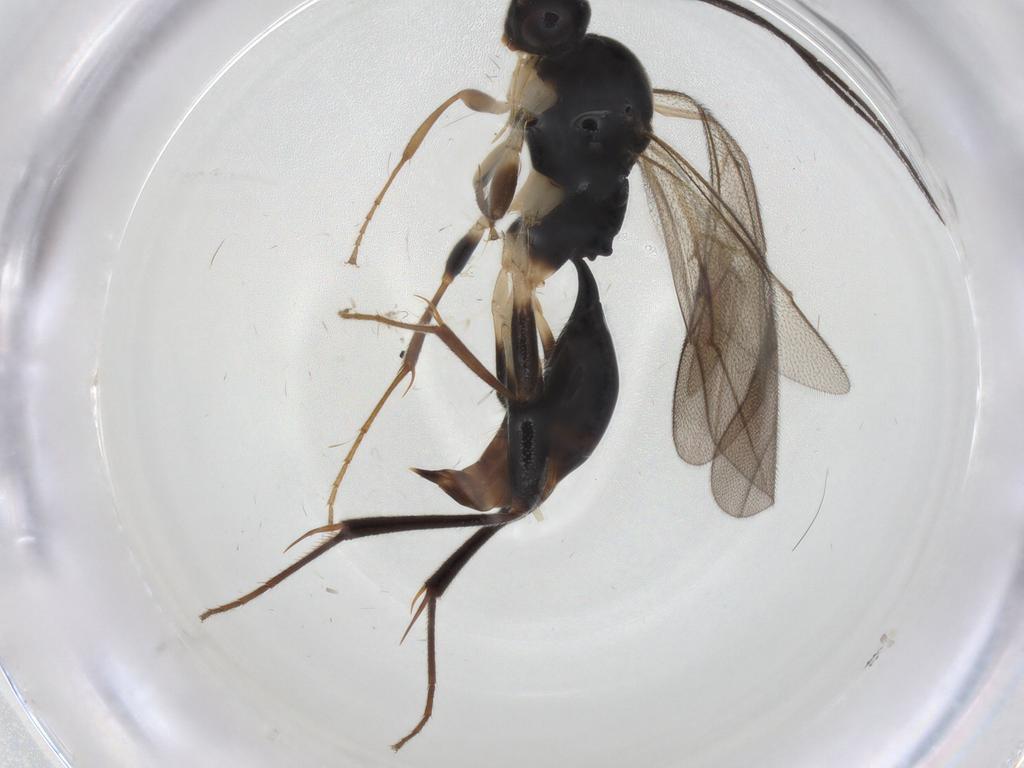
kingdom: Animalia
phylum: Arthropoda
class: Insecta
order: Hymenoptera
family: Proctotrupidae
